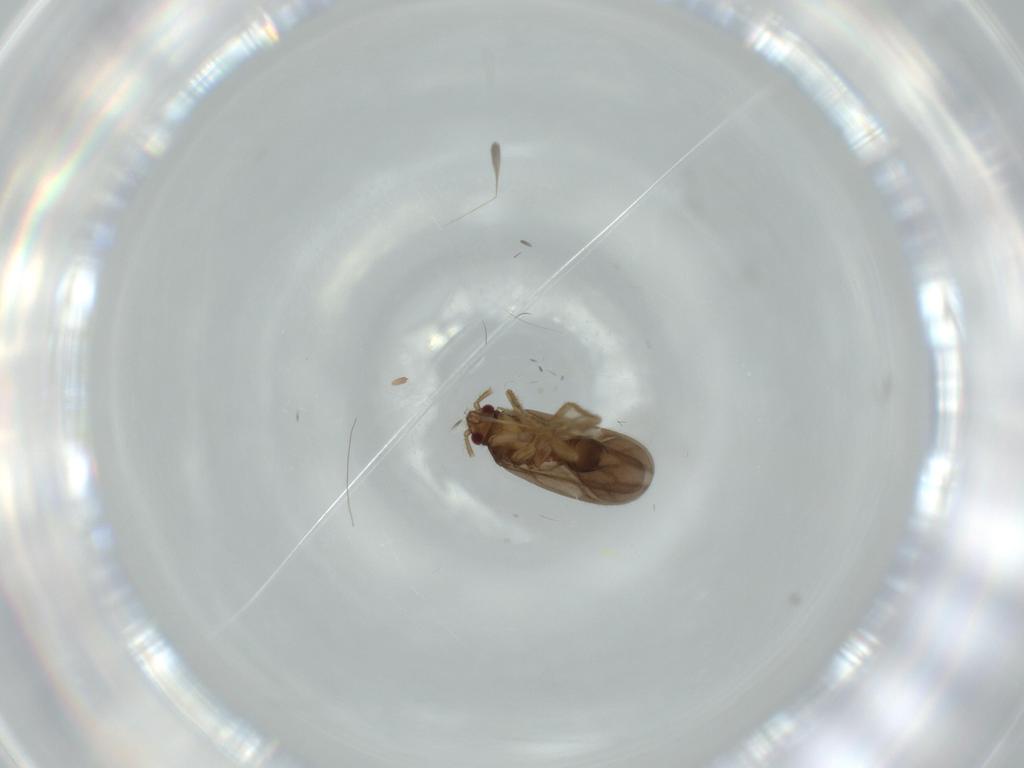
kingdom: Animalia
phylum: Arthropoda
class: Insecta
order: Hemiptera
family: Ceratocombidae
